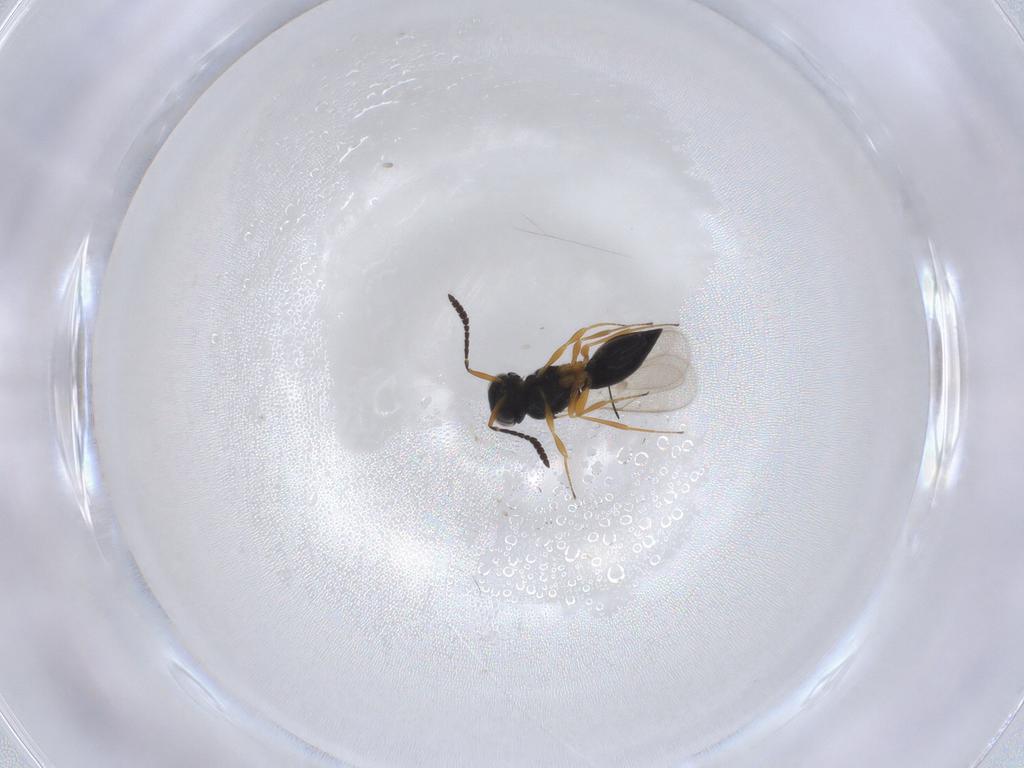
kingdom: Animalia
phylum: Arthropoda
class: Insecta
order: Hymenoptera
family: Scelionidae
